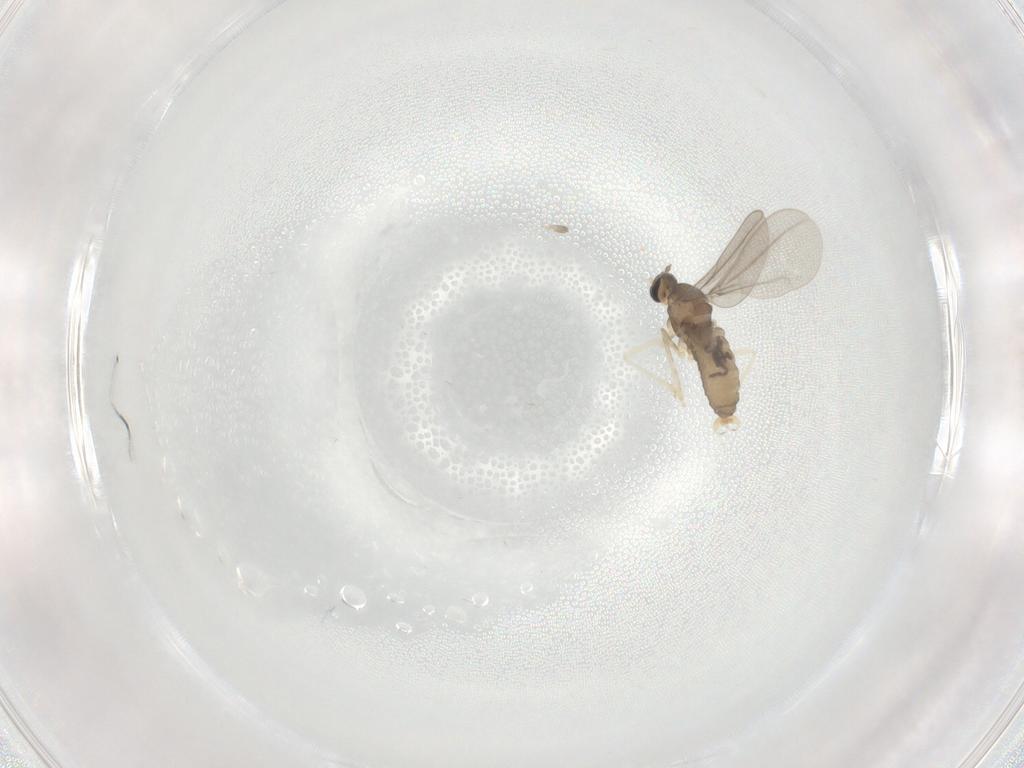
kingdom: Animalia
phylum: Arthropoda
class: Insecta
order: Diptera
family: Cecidomyiidae
